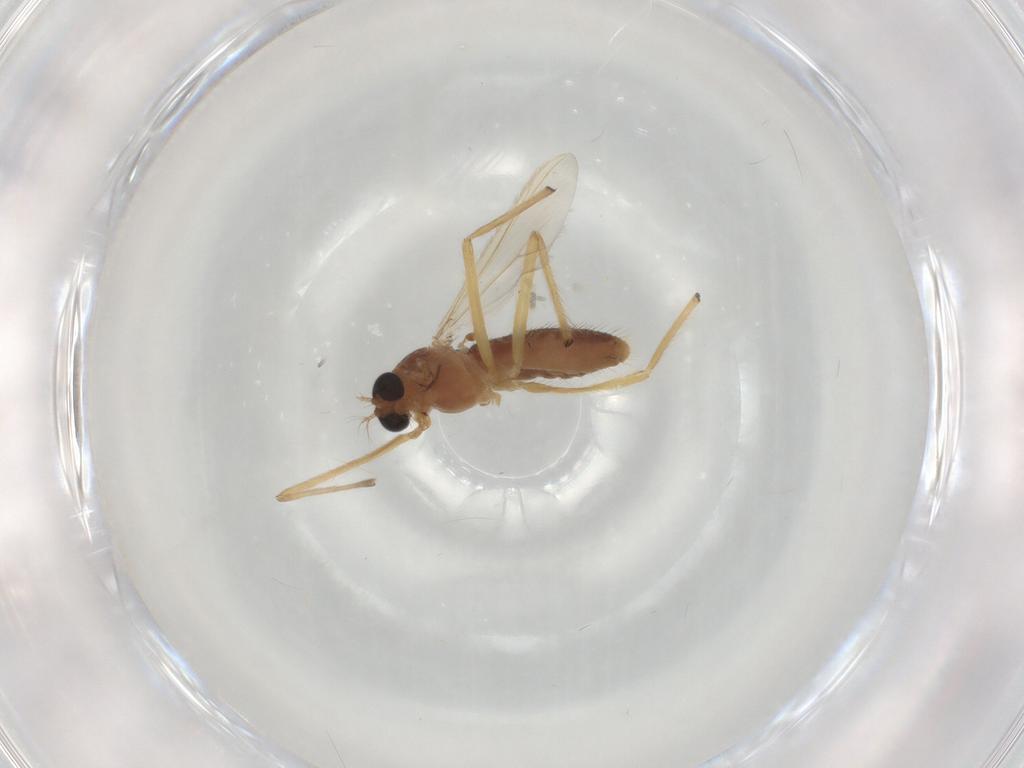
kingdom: Animalia
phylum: Arthropoda
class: Insecta
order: Diptera
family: Chironomidae
